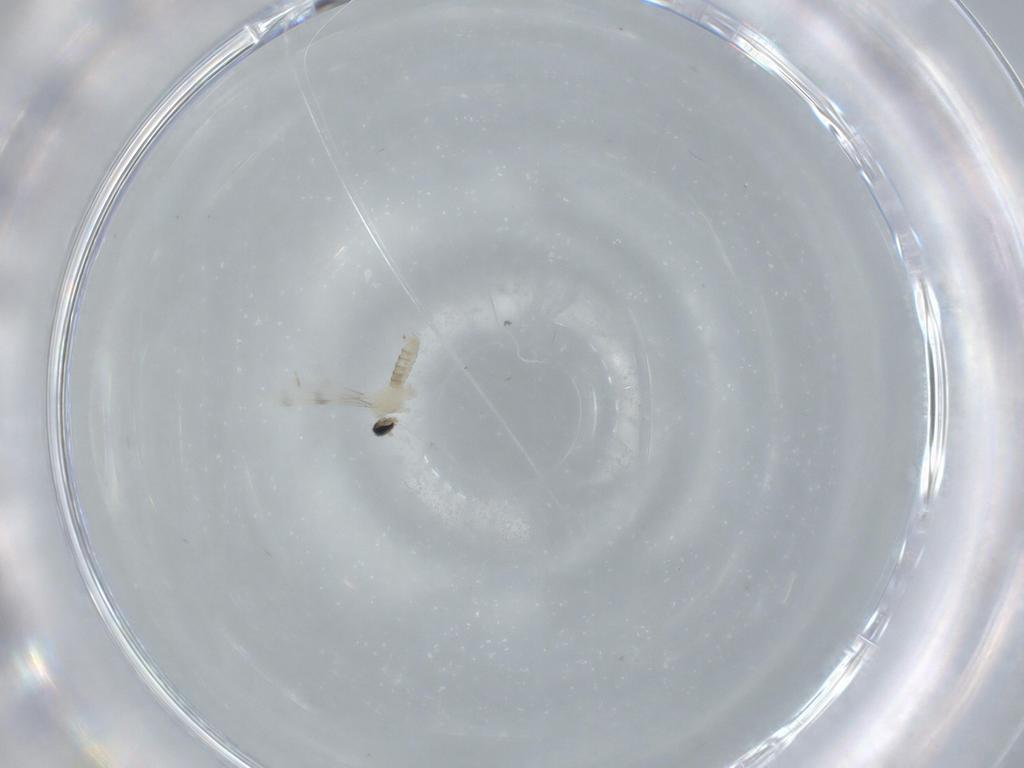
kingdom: Animalia
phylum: Arthropoda
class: Insecta
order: Diptera
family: Cecidomyiidae
